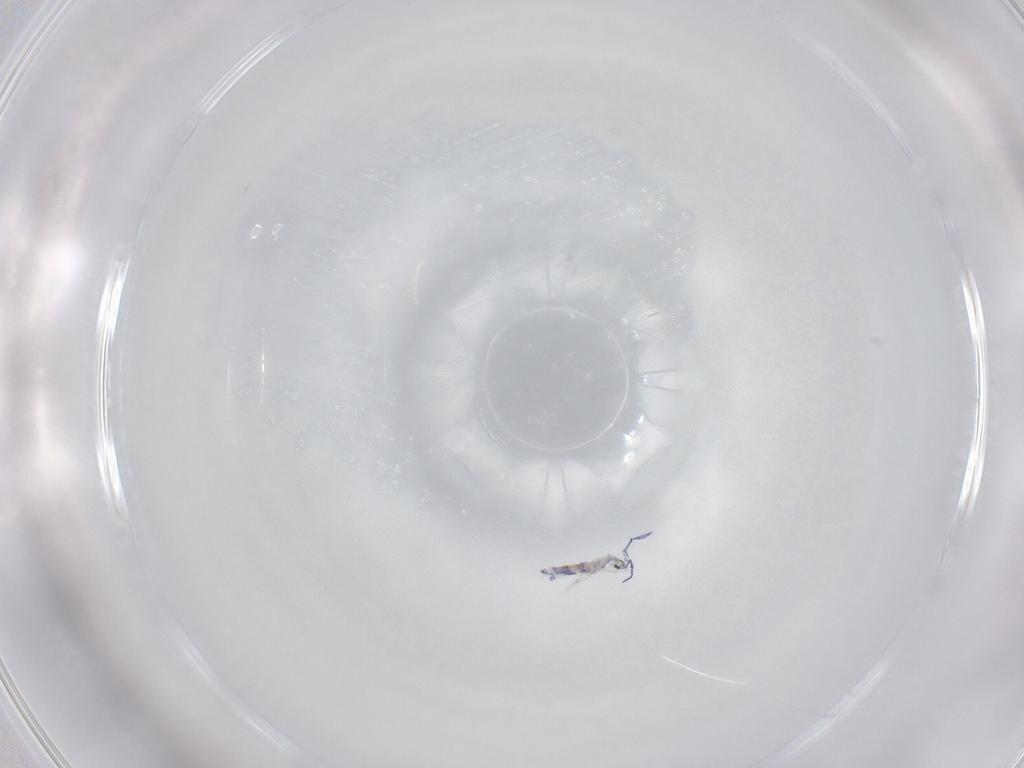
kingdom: Animalia
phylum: Arthropoda
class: Collembola
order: Entomobryomorpha
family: Entomobryidae
